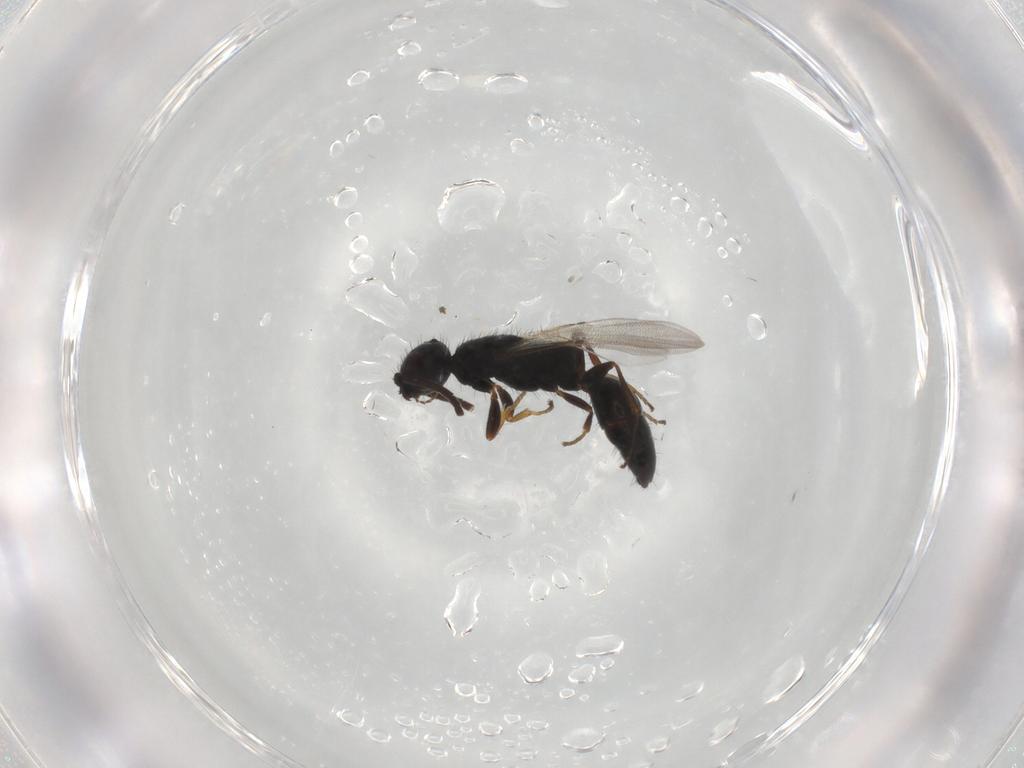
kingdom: Animalia
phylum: Arthropoda
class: Insecta
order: Hymenoptera
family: Bethylidae
